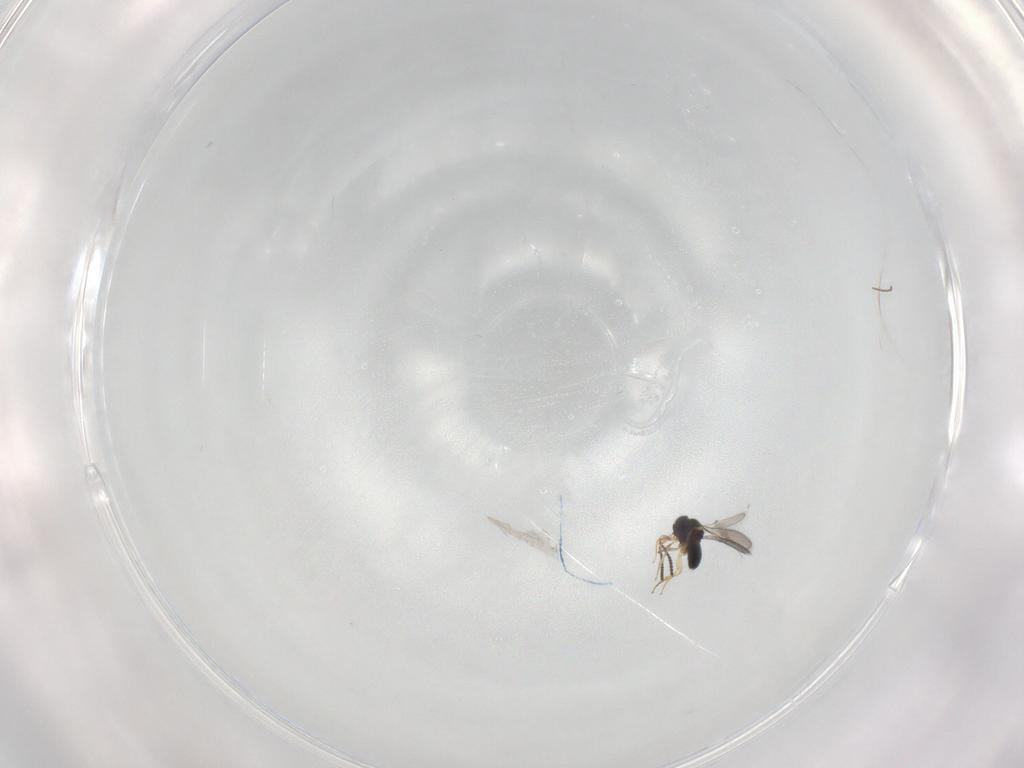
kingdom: Animalia
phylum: Arthropoda
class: Insecta
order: Hymenoptera
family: Scelionidae
